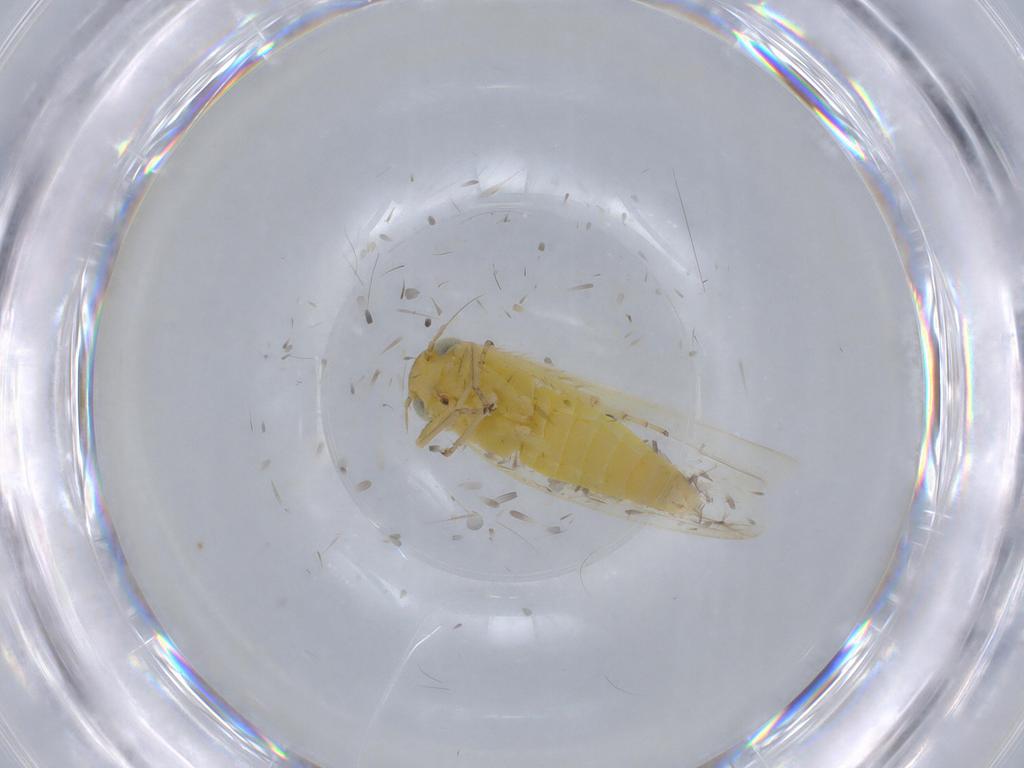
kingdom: Animalia
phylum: Arthropoda
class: Insecta
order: Hemiptera
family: Cicadellidae
